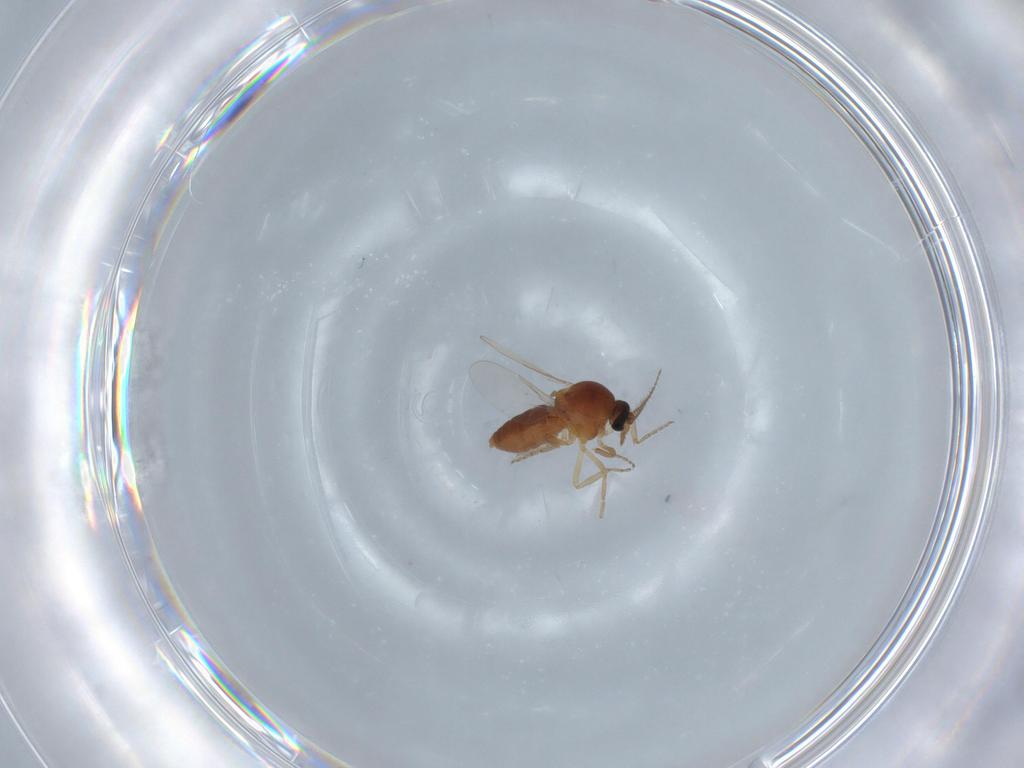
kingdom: Animalia
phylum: Arthropoda
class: Insecta
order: Diptera
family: Ceratopogonidae
